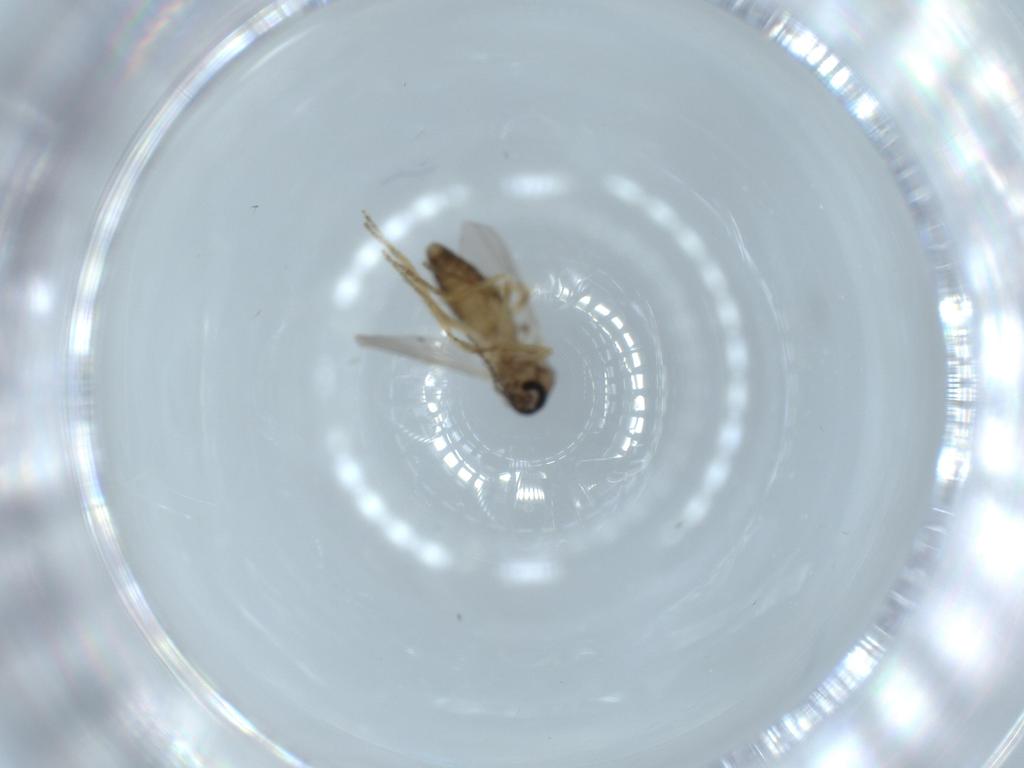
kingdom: Animalia
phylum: Arthropoda
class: Insecta
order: Diptera
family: Ceratopogonidae
